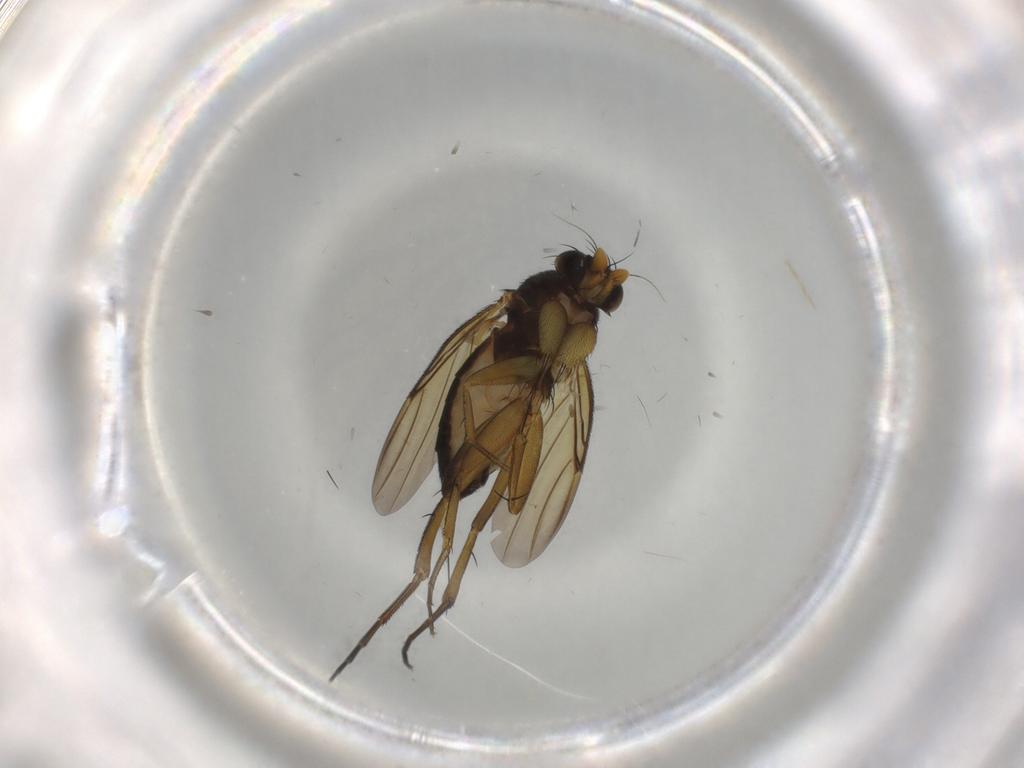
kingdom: Animalia
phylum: Arthropoda
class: Insecta
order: Diptera
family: Phoridae
